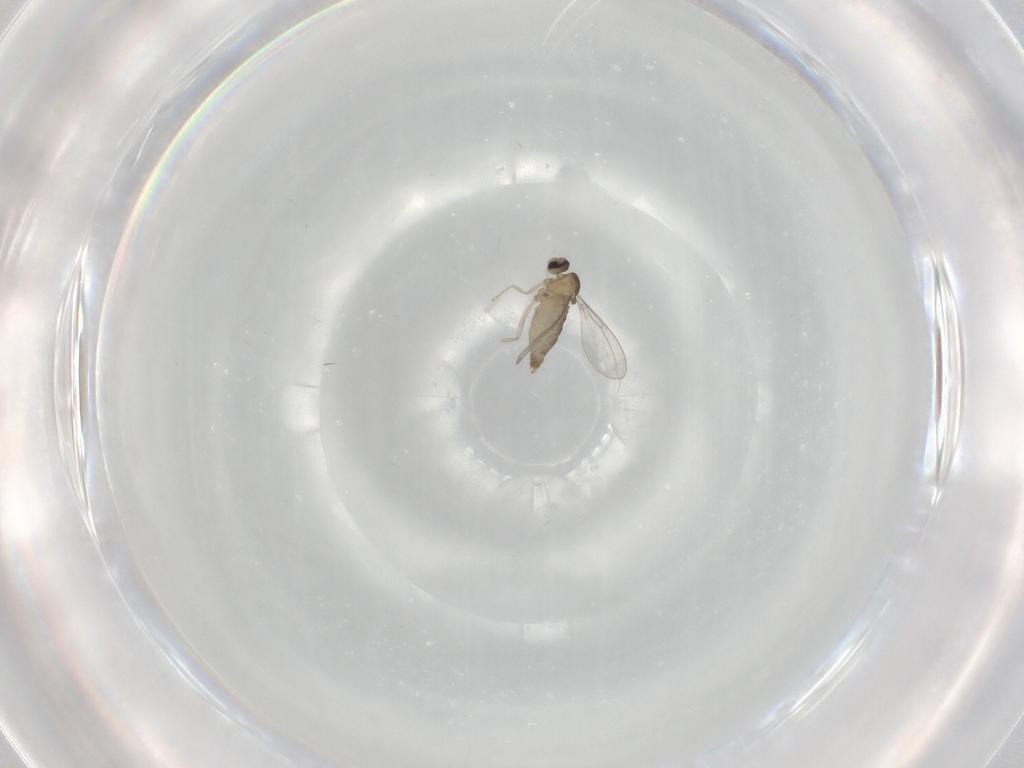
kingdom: Animalia
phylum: Arthropoda
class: Insecta
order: Diptera
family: Cecidomyiidae
